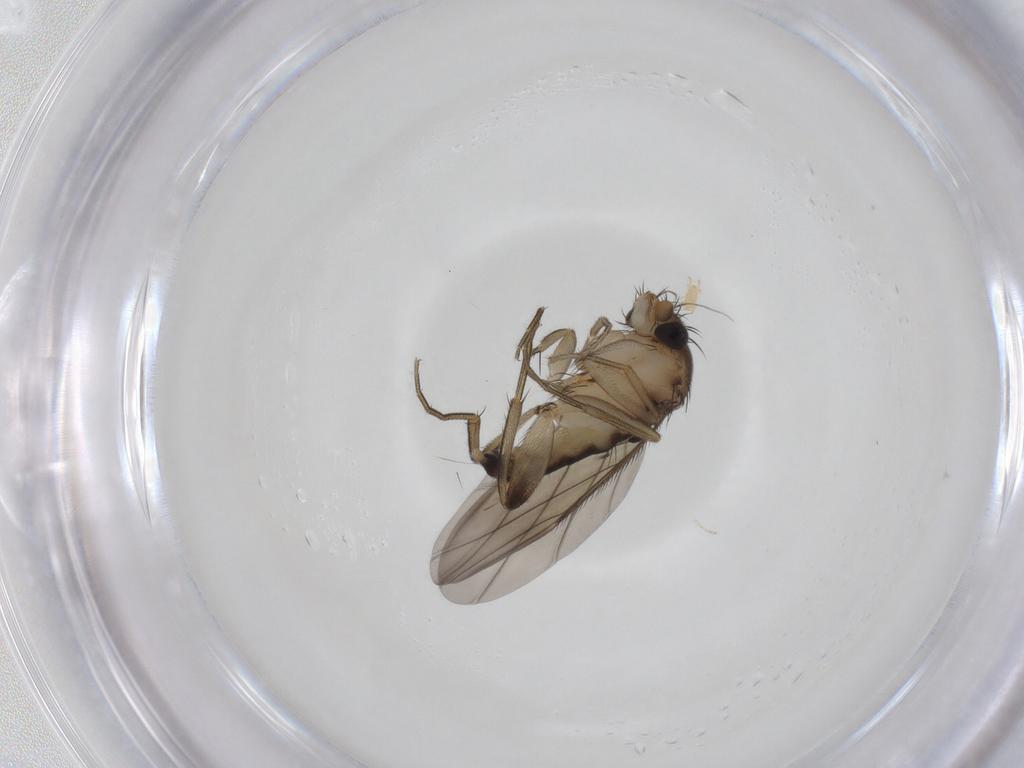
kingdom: Animalia
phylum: Arthropoda
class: Insecta
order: Diptera
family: Phoridae
